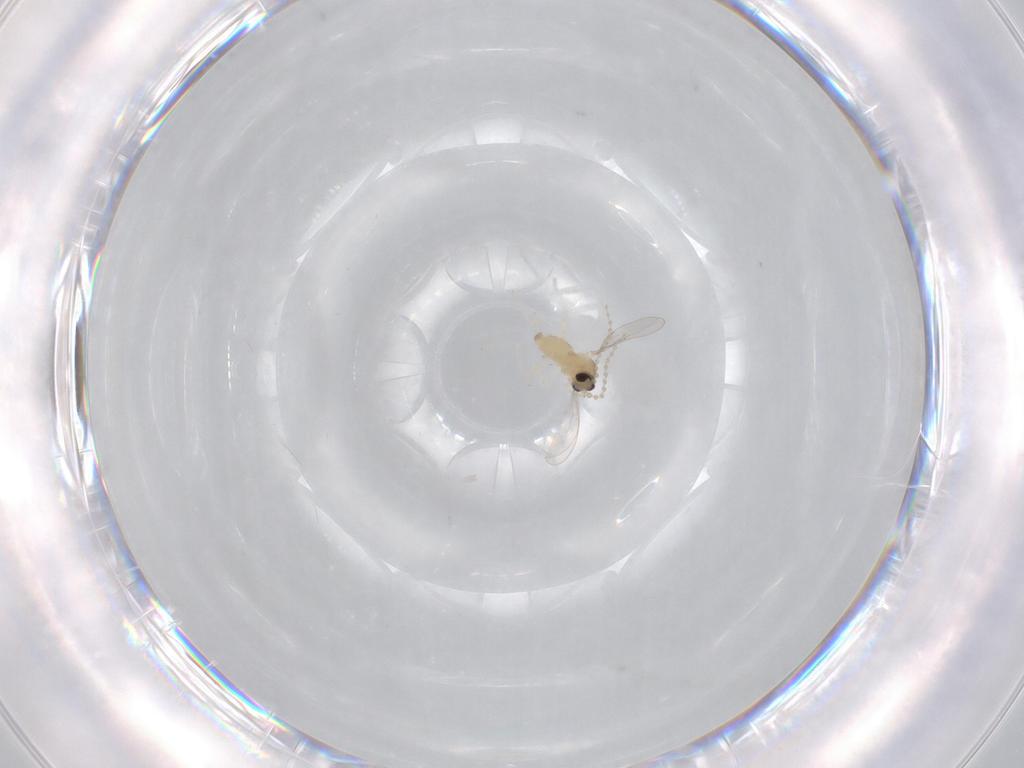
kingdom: Animalia
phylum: Arthropoda
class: Insecta
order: Diptera
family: Cecidomyiidae
